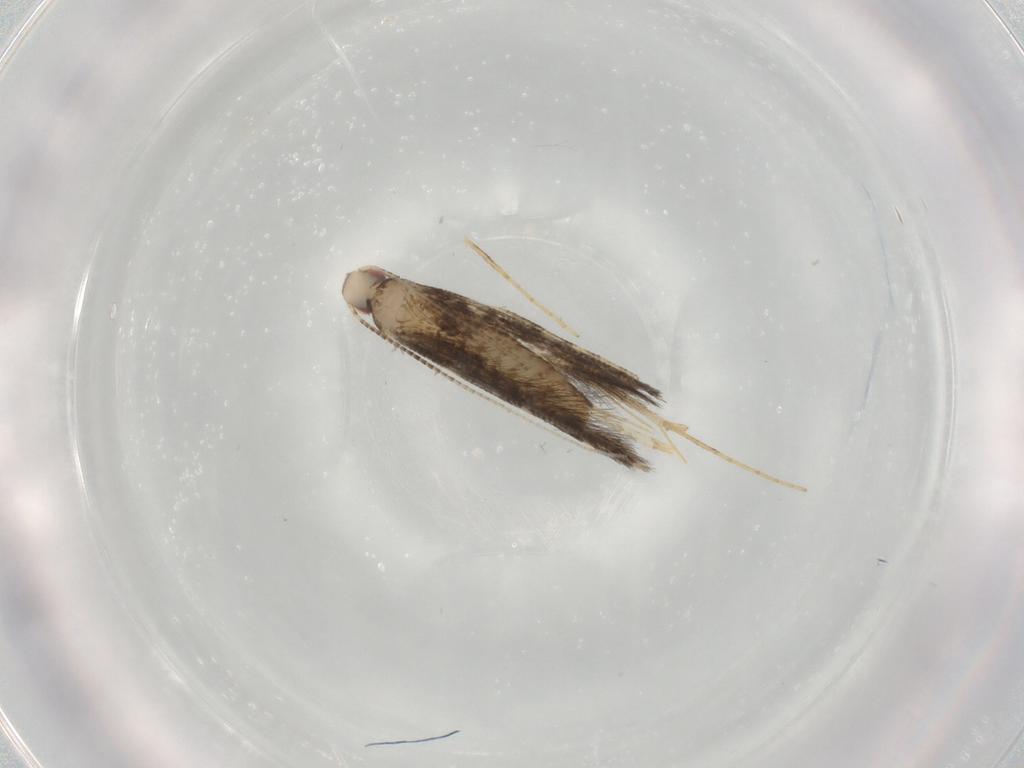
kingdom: Animalia
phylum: Arthropoda
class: Insecta
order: Lepidoptera
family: Gracillariidae
